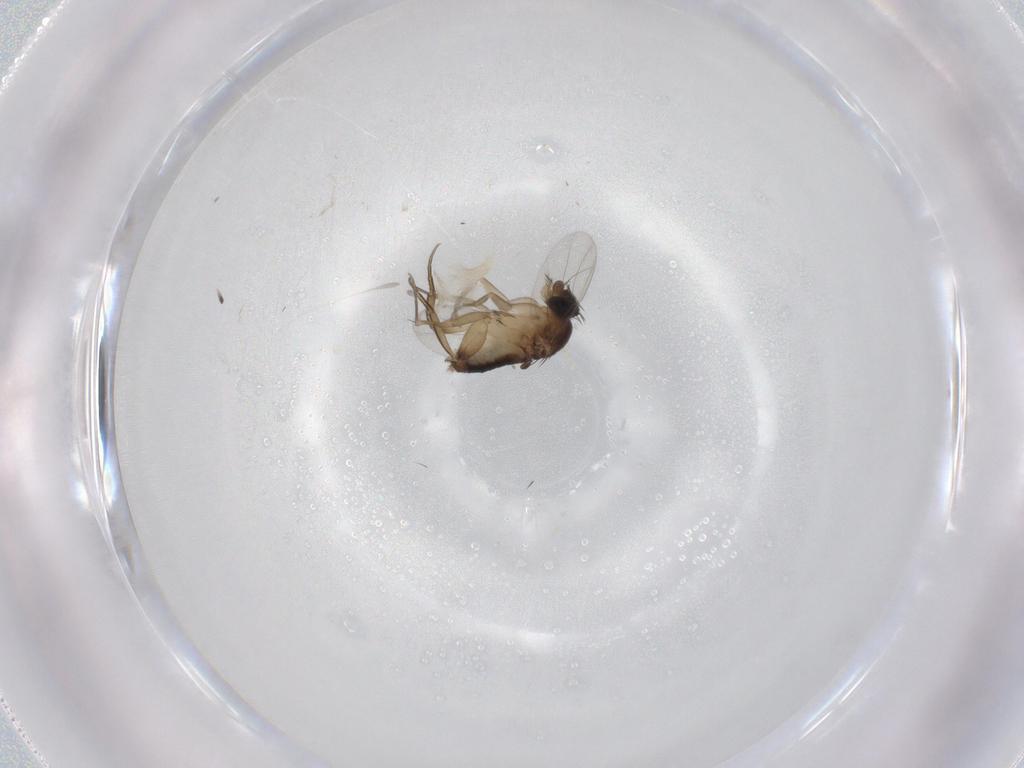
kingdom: Animalia
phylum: Arthropoda
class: Insecta
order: Diptera
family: Phoridae
